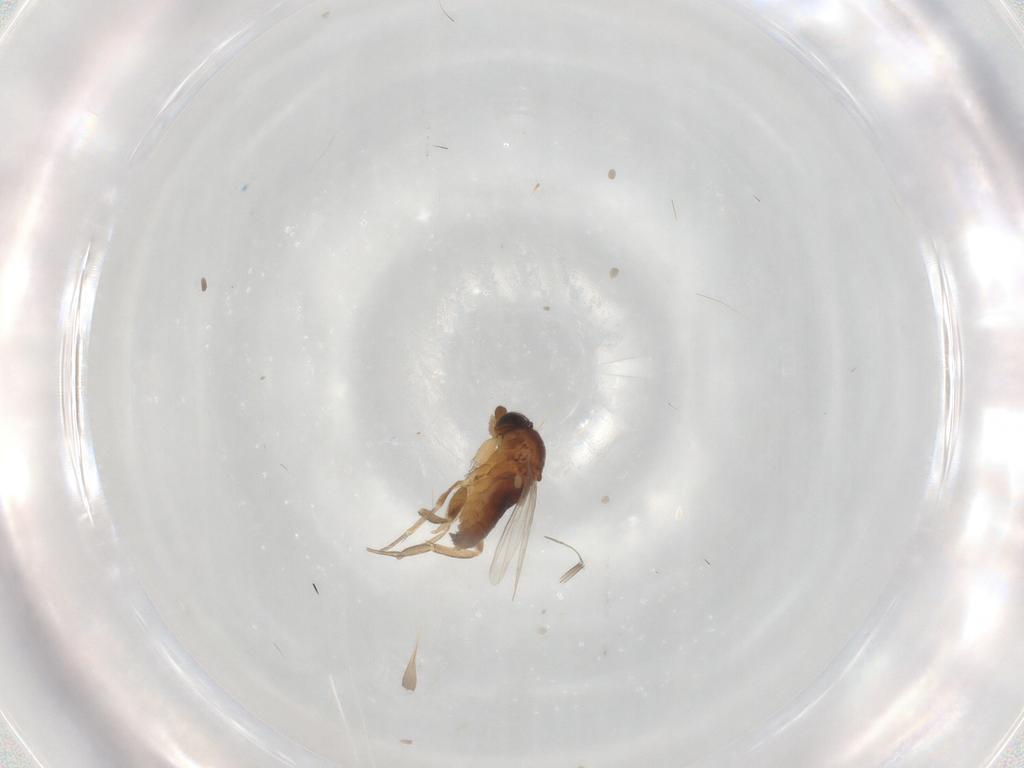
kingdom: Animalia
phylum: Arthropoda
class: Insecta
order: Diptera
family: Phoridae
